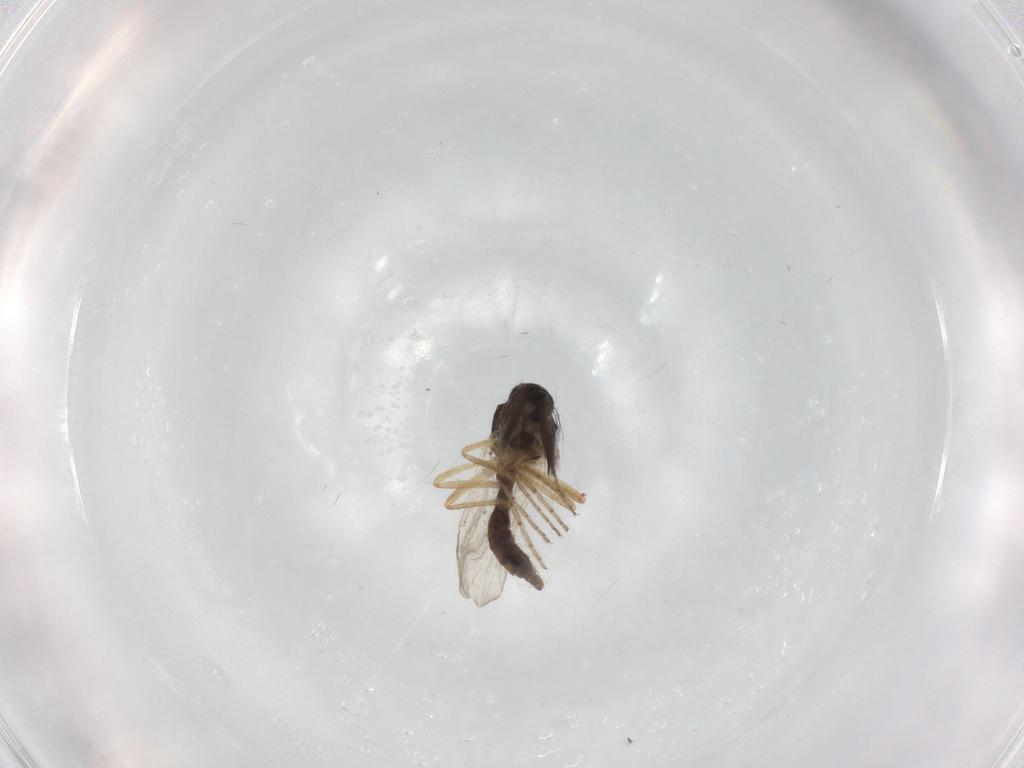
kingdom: Animalia
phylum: Arthropoda
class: Insecta
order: Diptera
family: Ceratopogonidae
